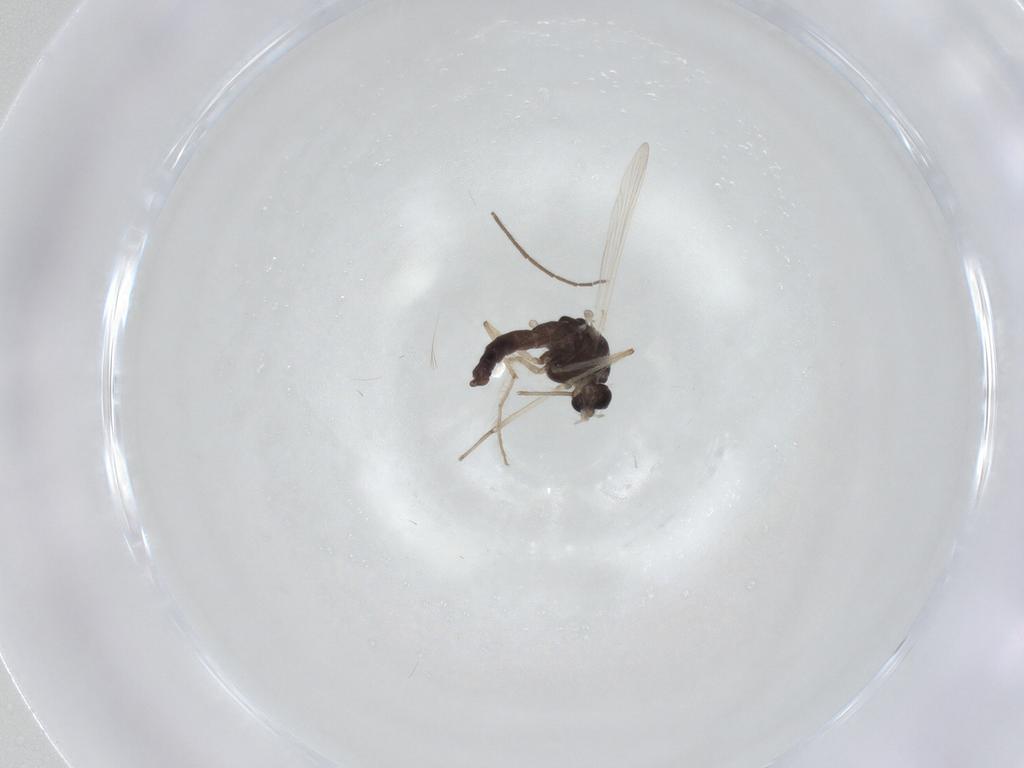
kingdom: Animalia
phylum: Arthropoda
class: Insecta
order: Diptera
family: Chironomidae
